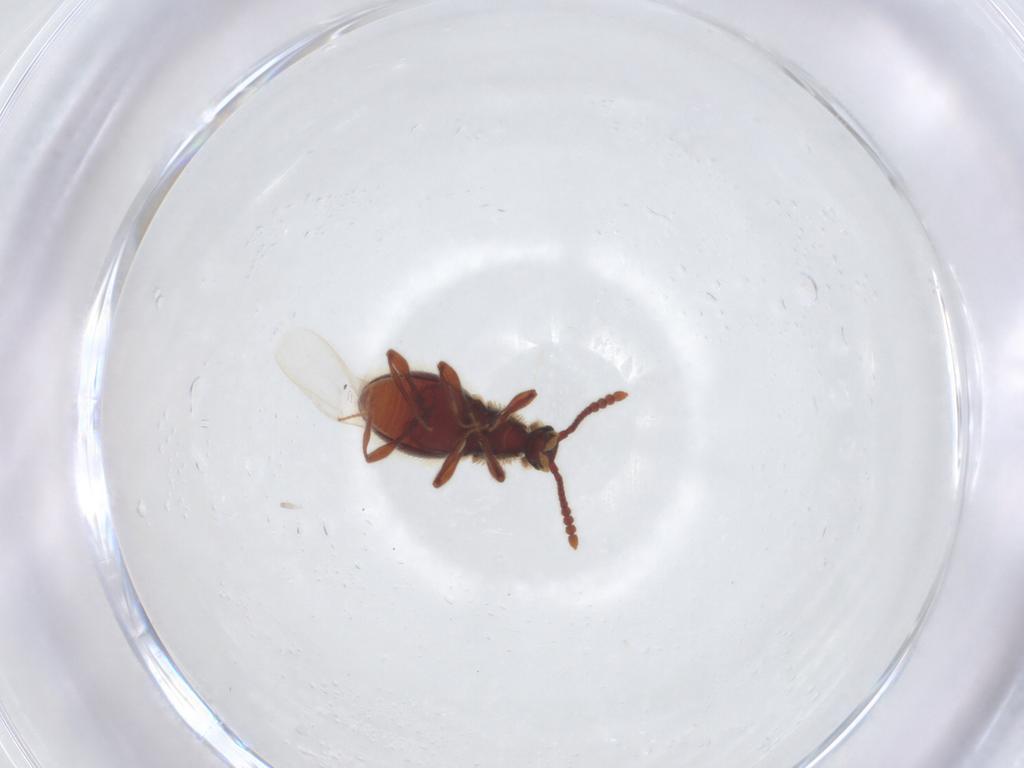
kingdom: Animalia
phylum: Arthropoda
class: Insecta
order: Coleoptera
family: Staphylinidae
